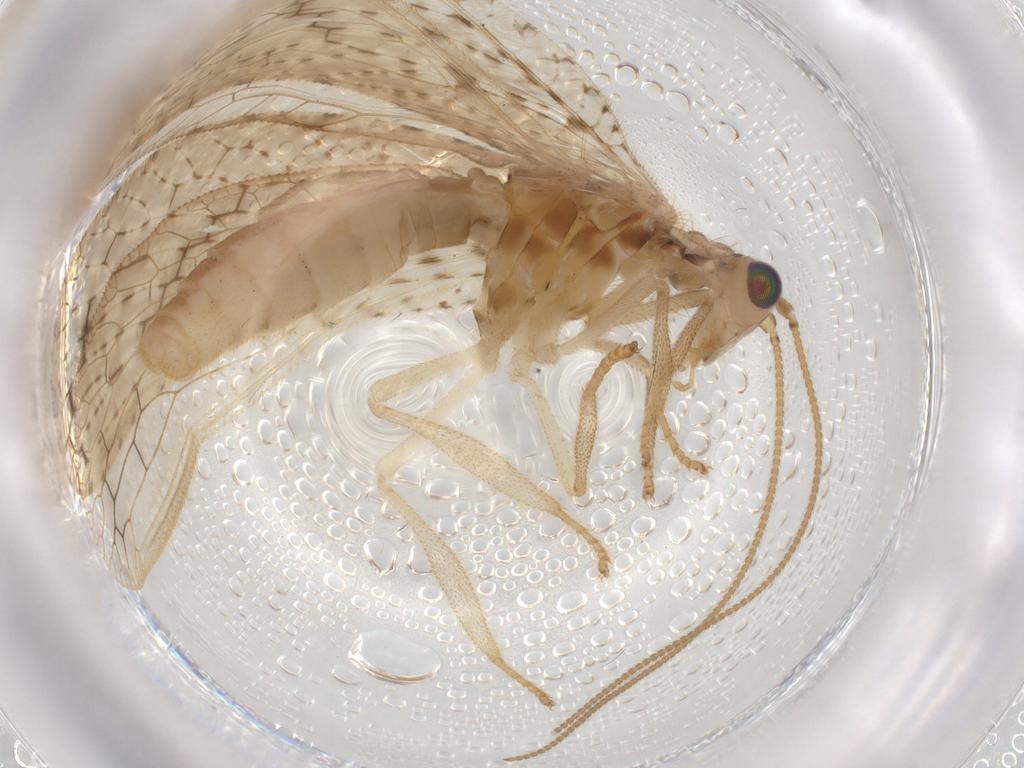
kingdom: Animalia
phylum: Arthropoda
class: Insecta
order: Neuroptera
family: Hemerobiidae
